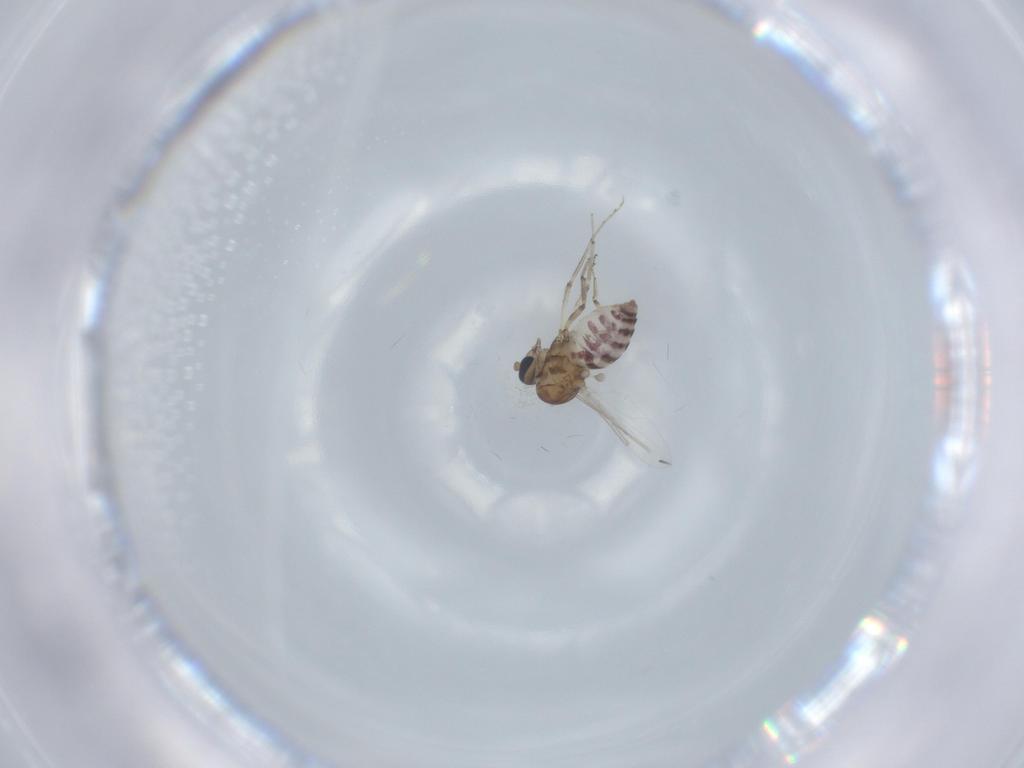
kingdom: Animalia
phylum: Arthropoda
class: Insecta
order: Diptera
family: Ceratopogonidae
